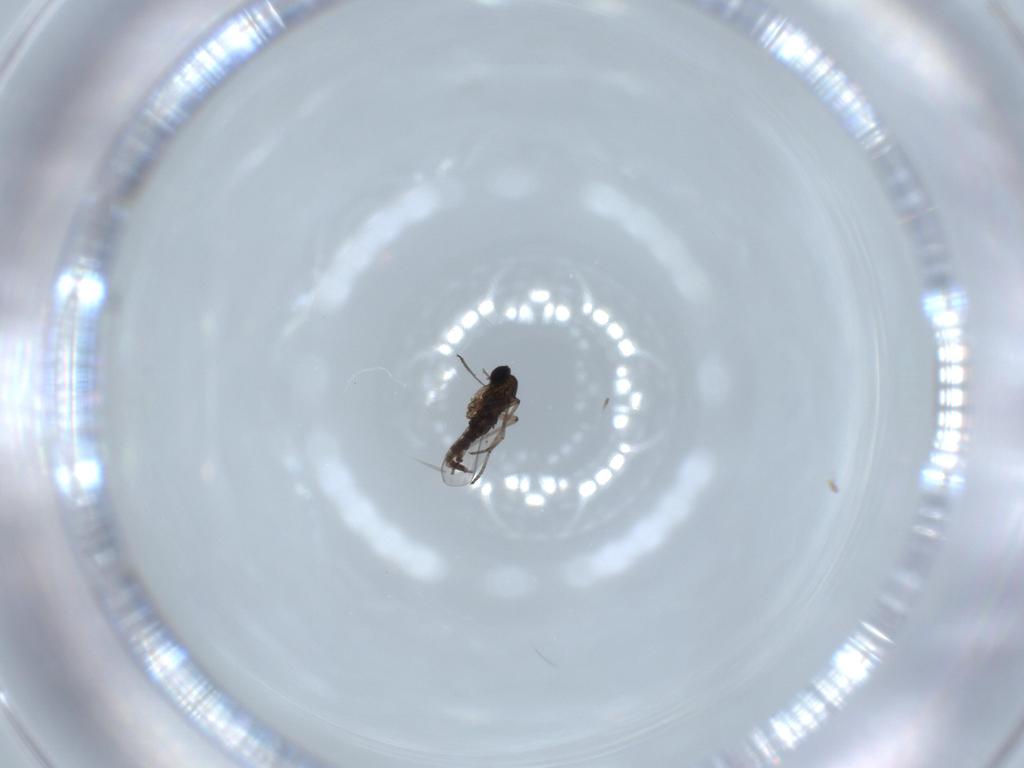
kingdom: Animalia
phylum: Arthropoda
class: Insecta
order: Diptera
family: Sciaridae
